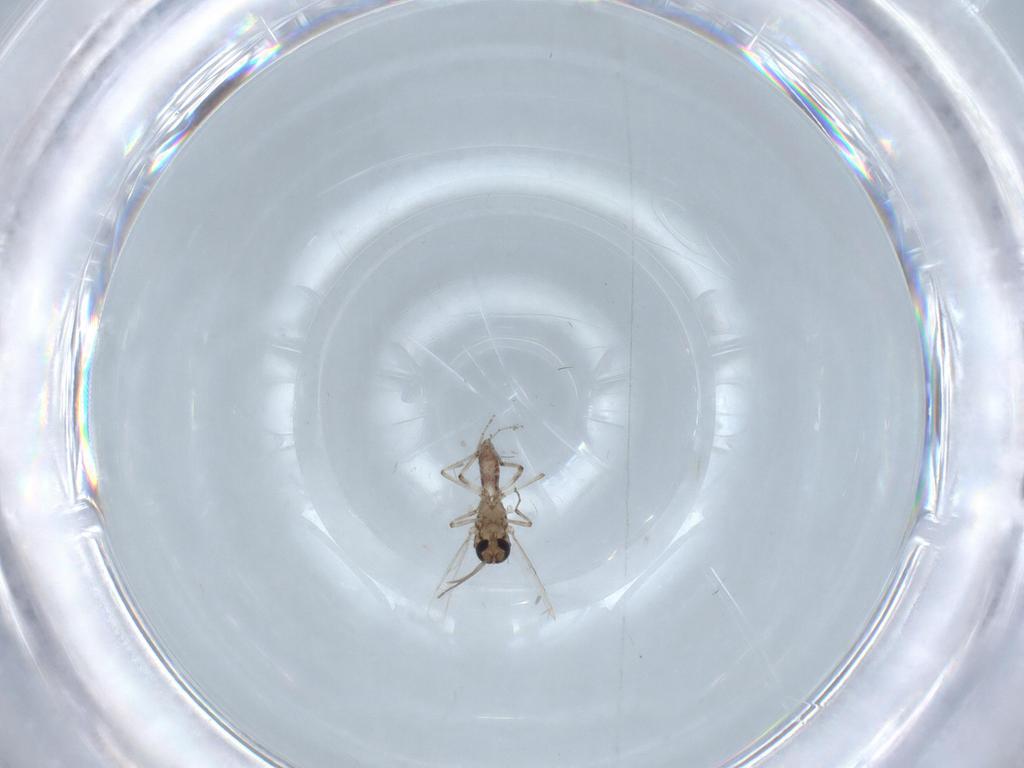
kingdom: Animalia
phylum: Arthropoda
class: Insecta
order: Diptera
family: Ceratopogonidae
